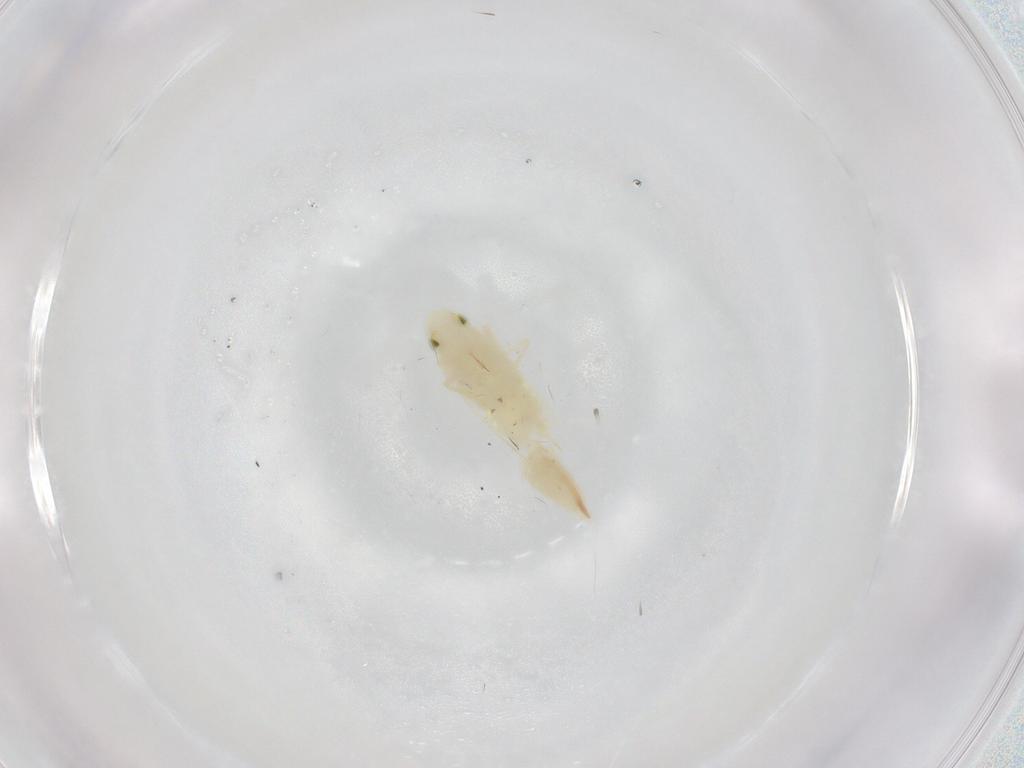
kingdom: Animalia
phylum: Arthropoda
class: Insecta
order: Hemiptera
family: Cicadellidae
